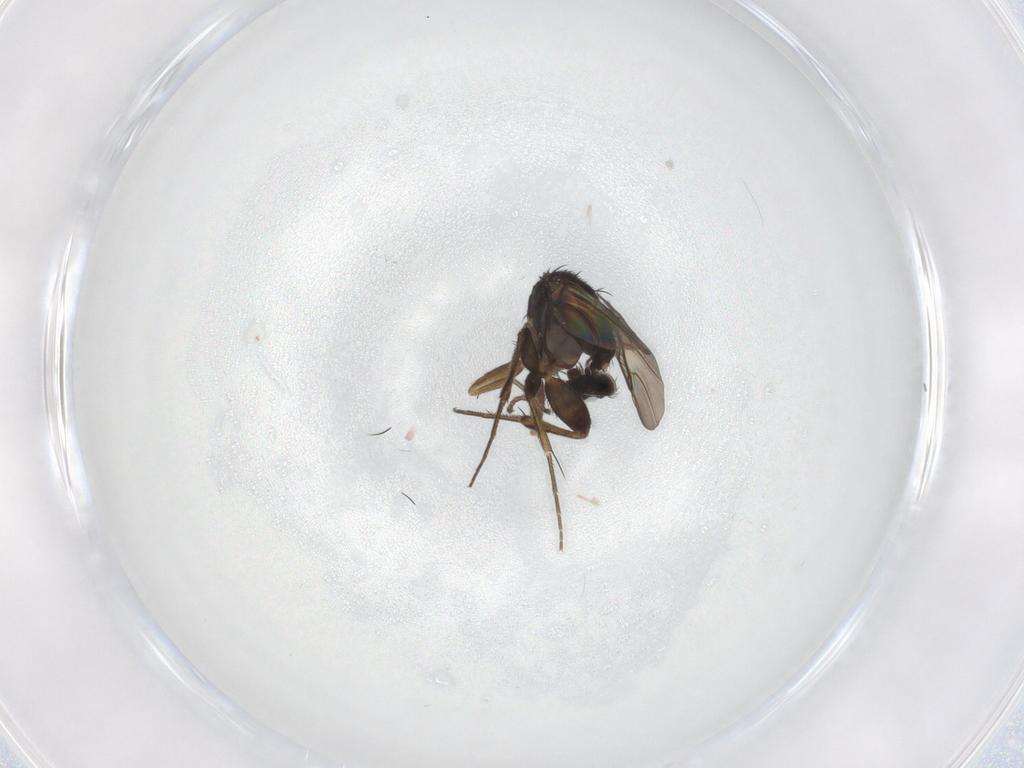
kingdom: Animalia
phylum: Arthropoda
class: Insecta
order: Diptera
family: Phoridae
